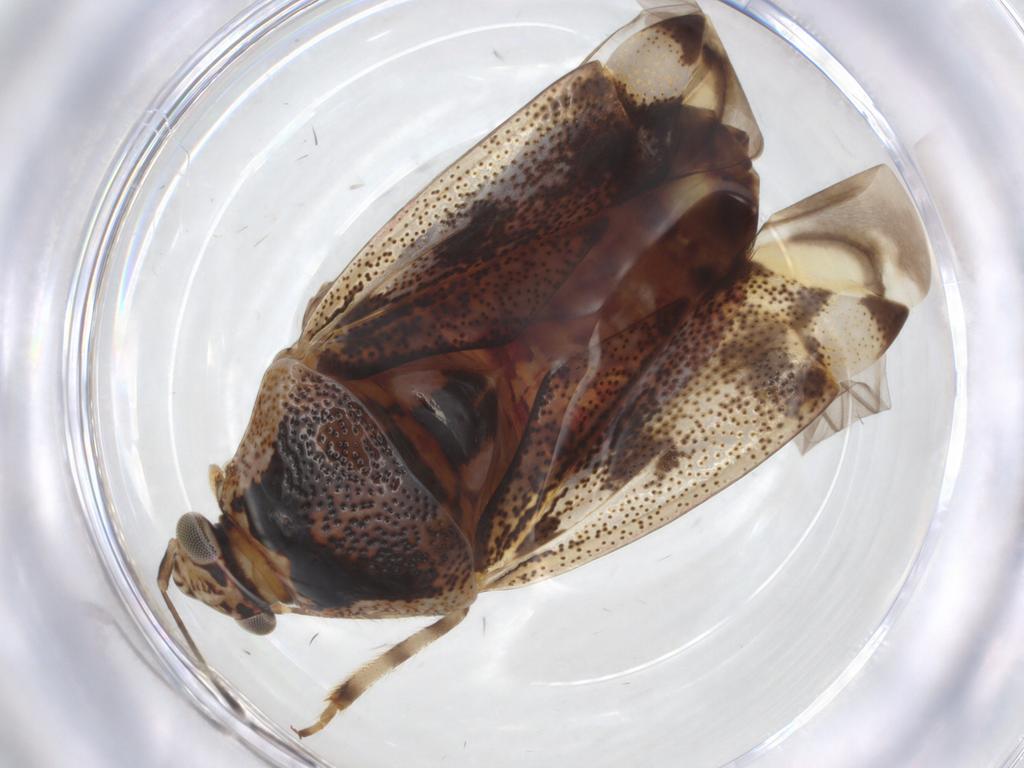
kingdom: Animalia
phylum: Arthropoda
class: Insecta
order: Hemiptera
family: Miridae
